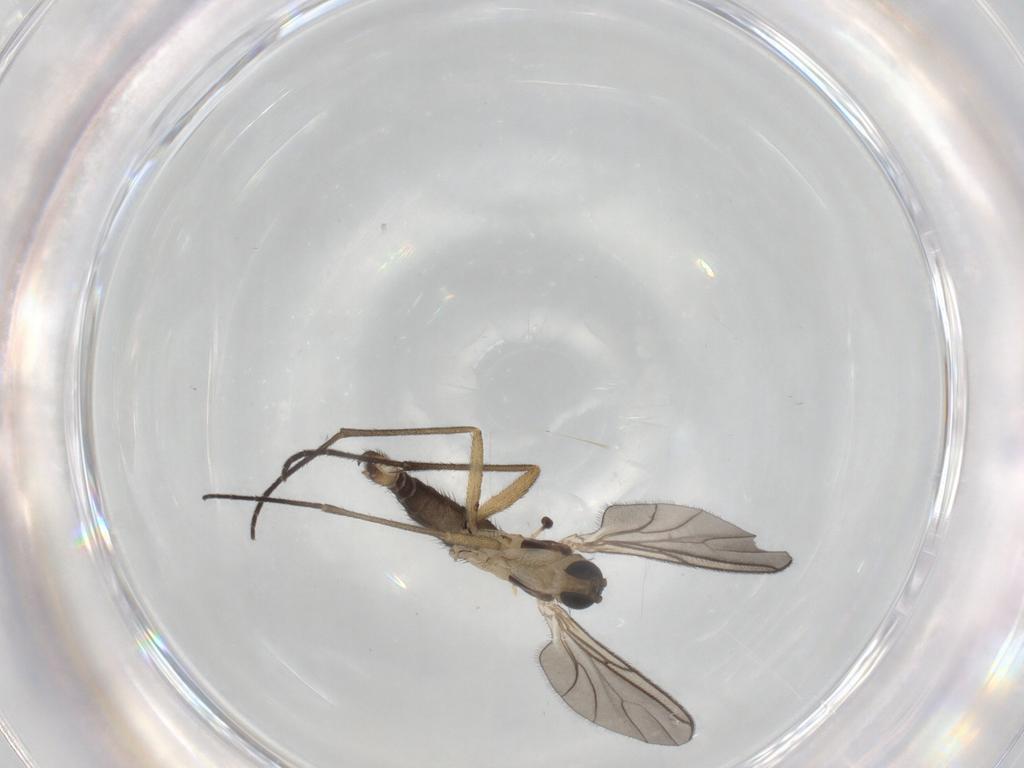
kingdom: Animalia
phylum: Arthropoda
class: Insecta
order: Diptera
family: Sciaridae
